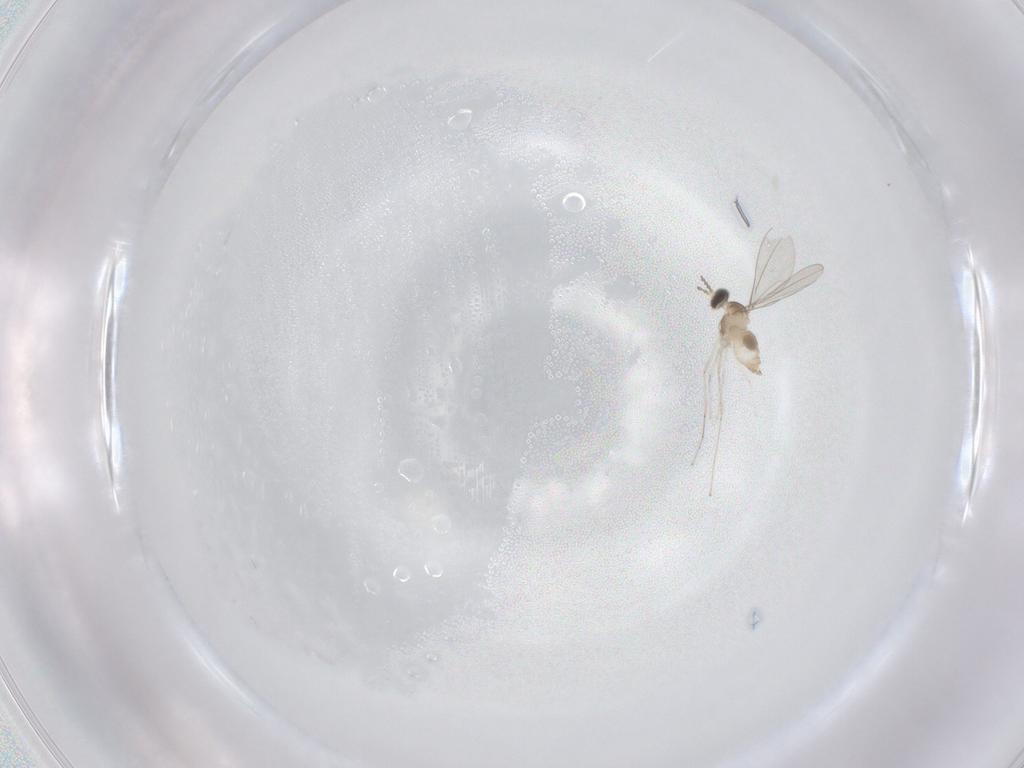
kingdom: Animalia
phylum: Arthropoda
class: Insecta
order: Diptera
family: Cecidomyiidae
